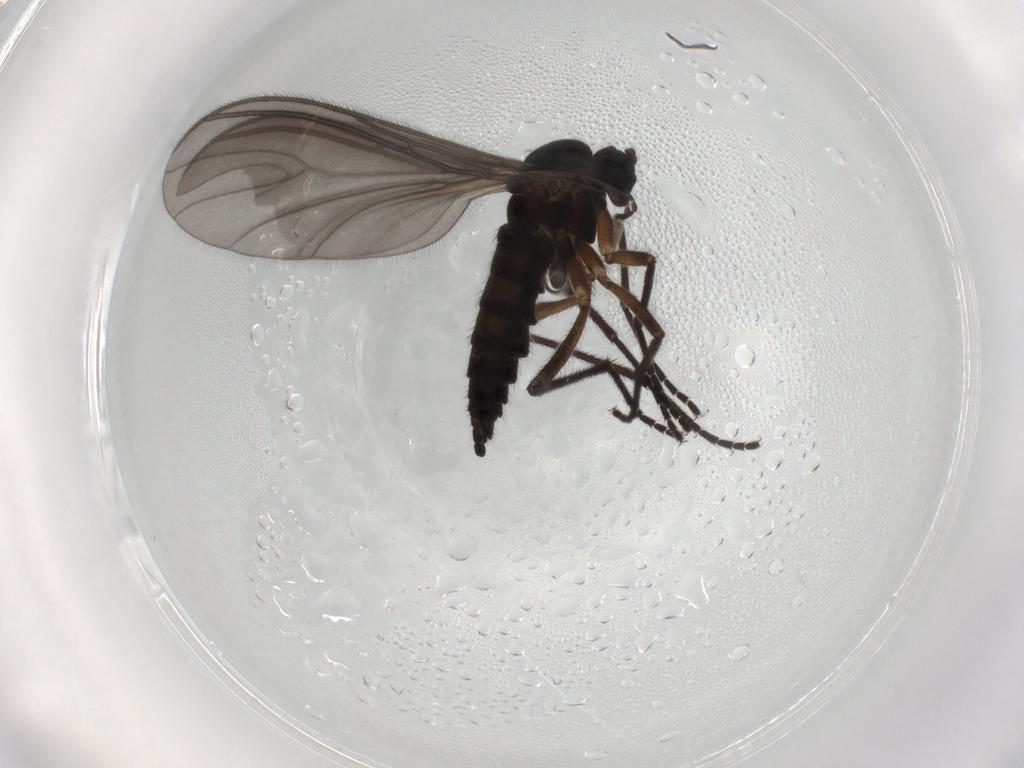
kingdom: Animalia
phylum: Arthropoda
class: Insecta
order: Diptera
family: Sciaridae
